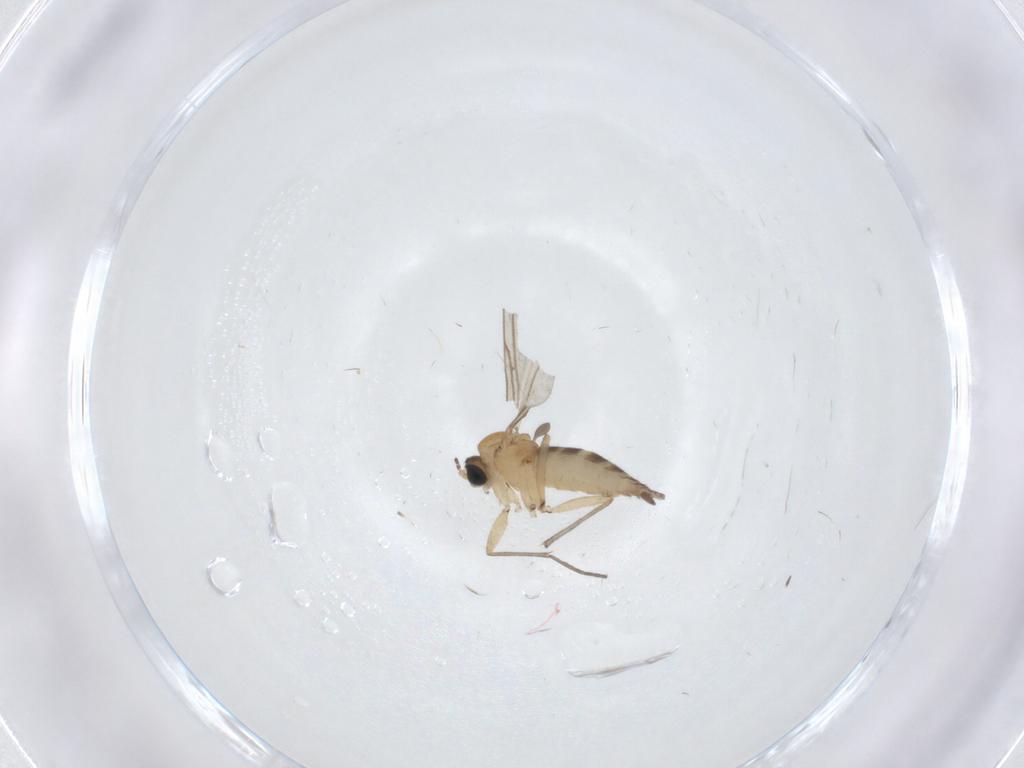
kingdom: Animalia
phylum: Arthropoda
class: Insecta
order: Diptera
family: Sciaridae
